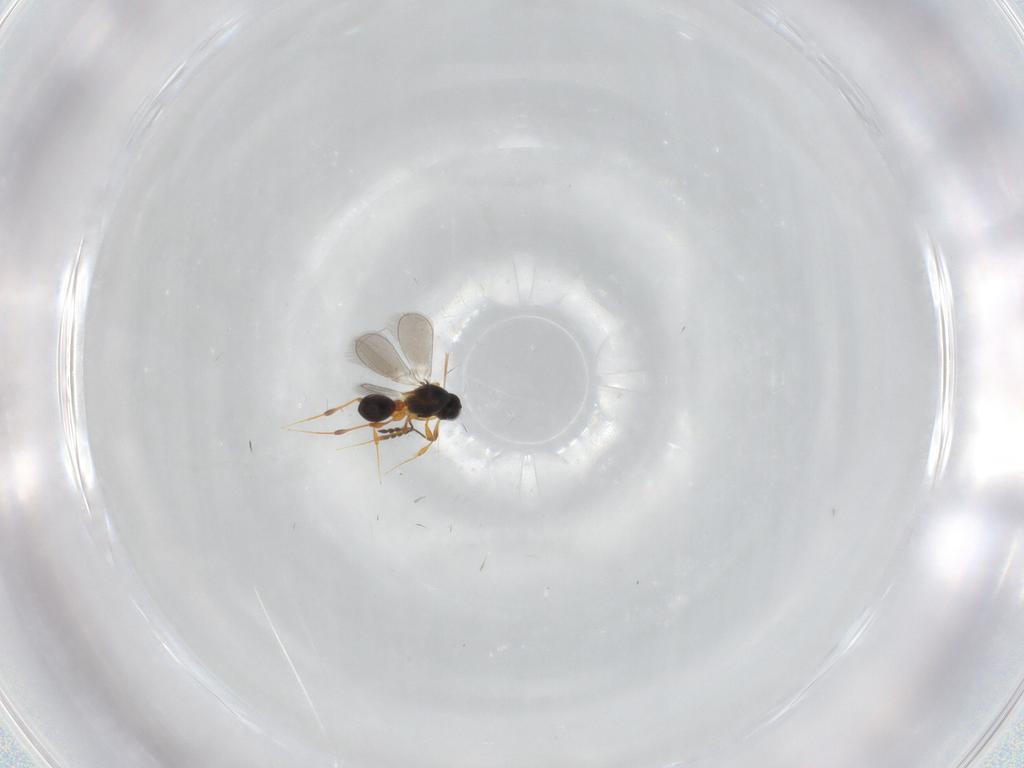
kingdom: Animalia
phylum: Arthropoda
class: Insecta
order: Hymenoptera
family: Platygastridae
